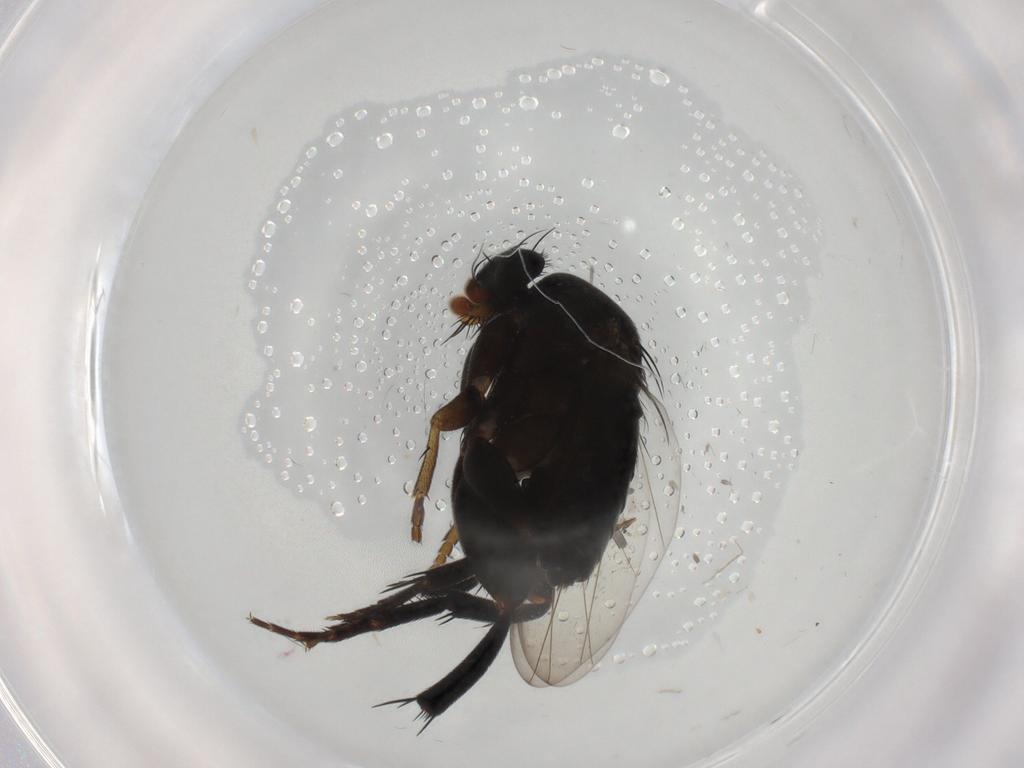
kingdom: Animalia
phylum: Arthropoda
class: Insecta
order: Diptera
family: Phoridae
